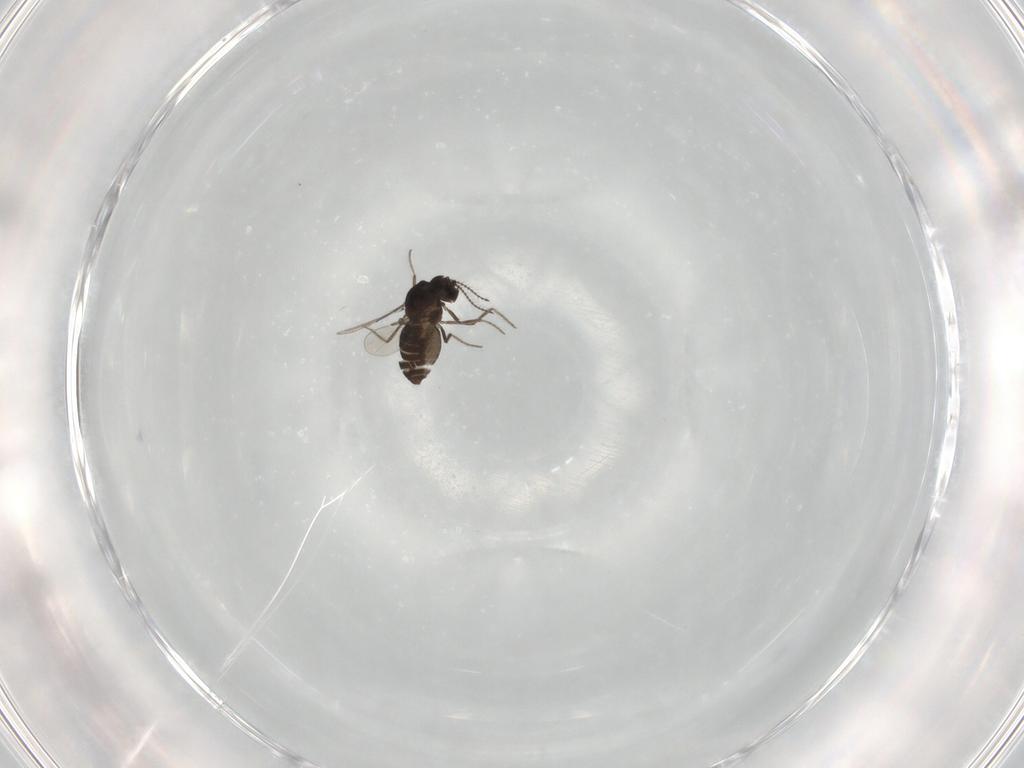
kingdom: Animalia
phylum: Arthropoda
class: Insecta
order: Diptera
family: Ceratopogonidae
